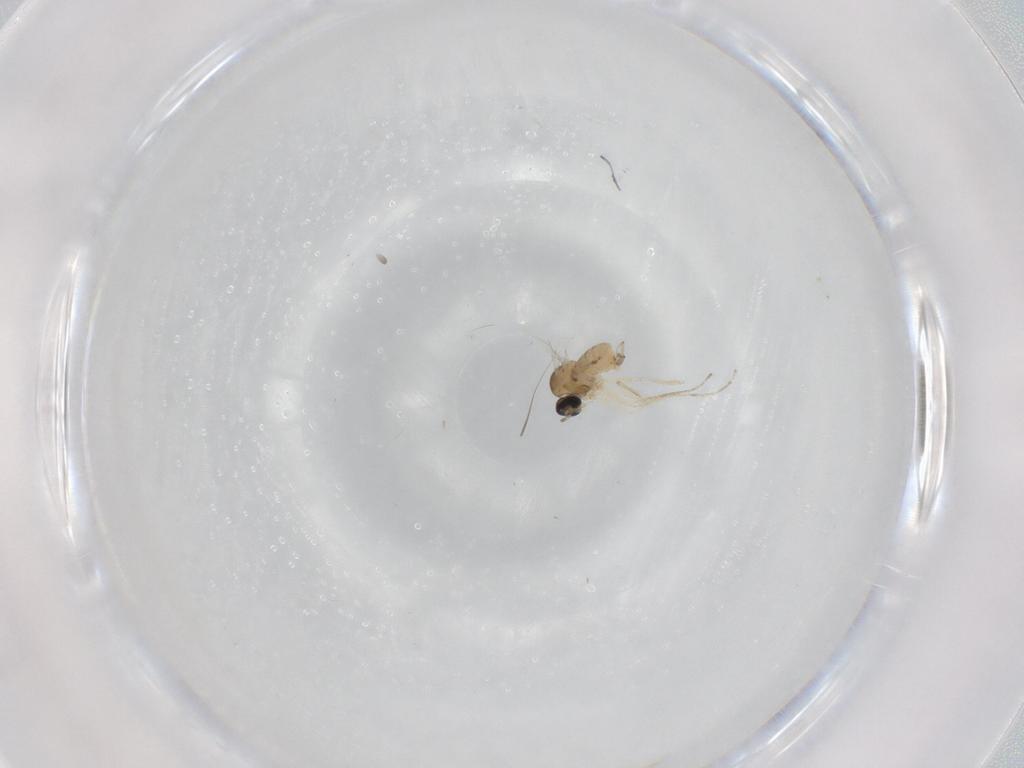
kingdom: Animalia
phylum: Arthropoda
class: Insecta
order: Diptera
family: Cecidomyiidae
